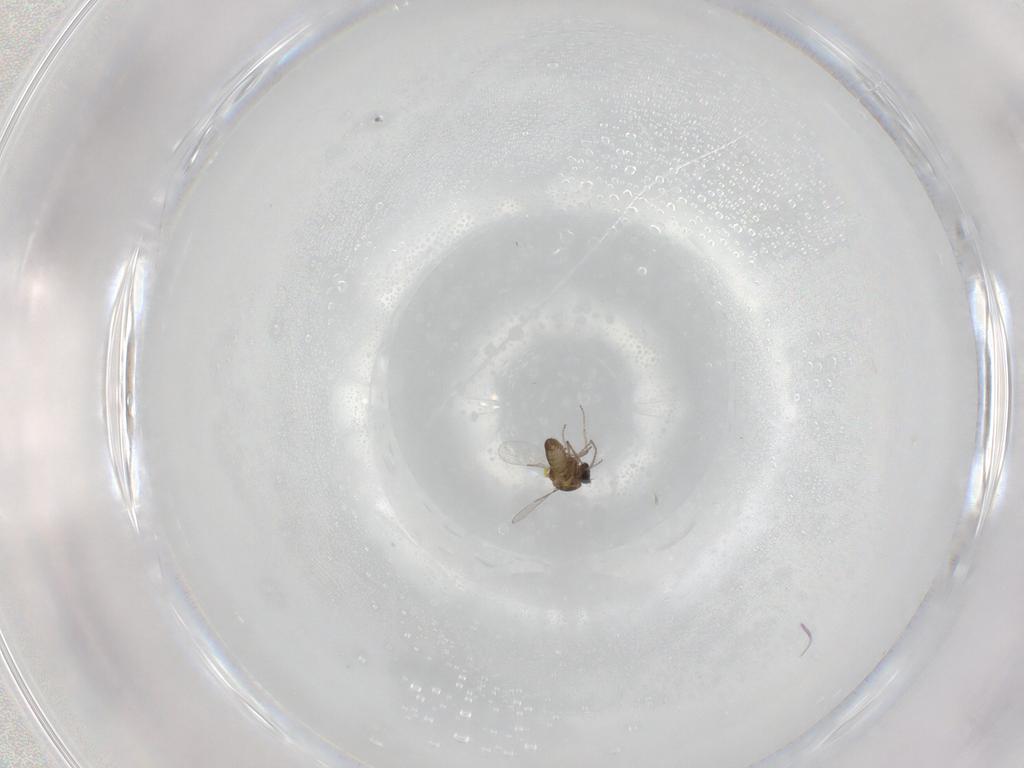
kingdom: Animalia
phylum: Arthropoda
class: Insecta
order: Diptera
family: Ceratopogonidae
